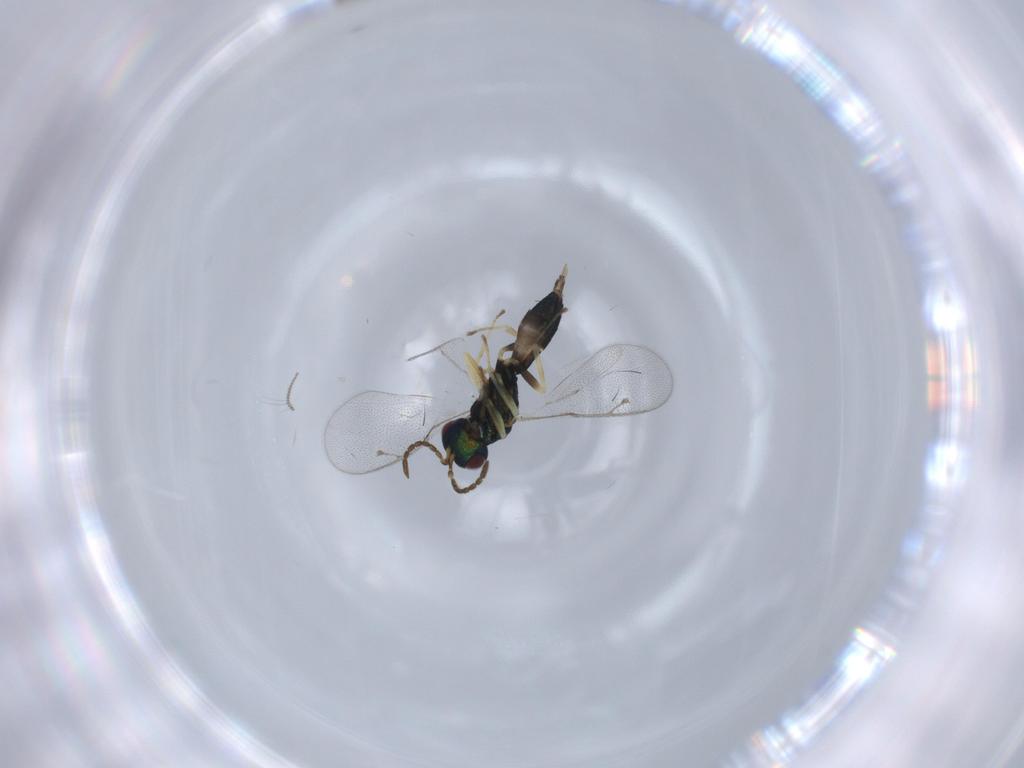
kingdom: Animalia
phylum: Arthropoda
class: Insecta
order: Hymenoptera
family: Pteromalidae
